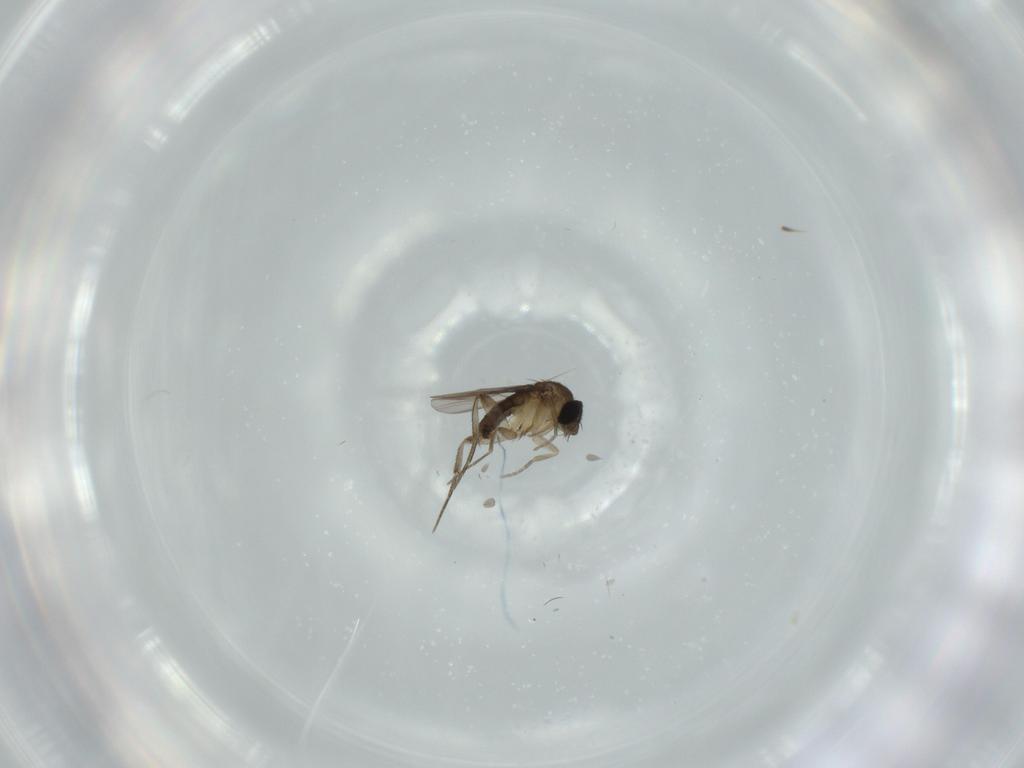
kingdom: Animalia
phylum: Arthropoda
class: Insecta
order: Diptera
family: Phoridae
